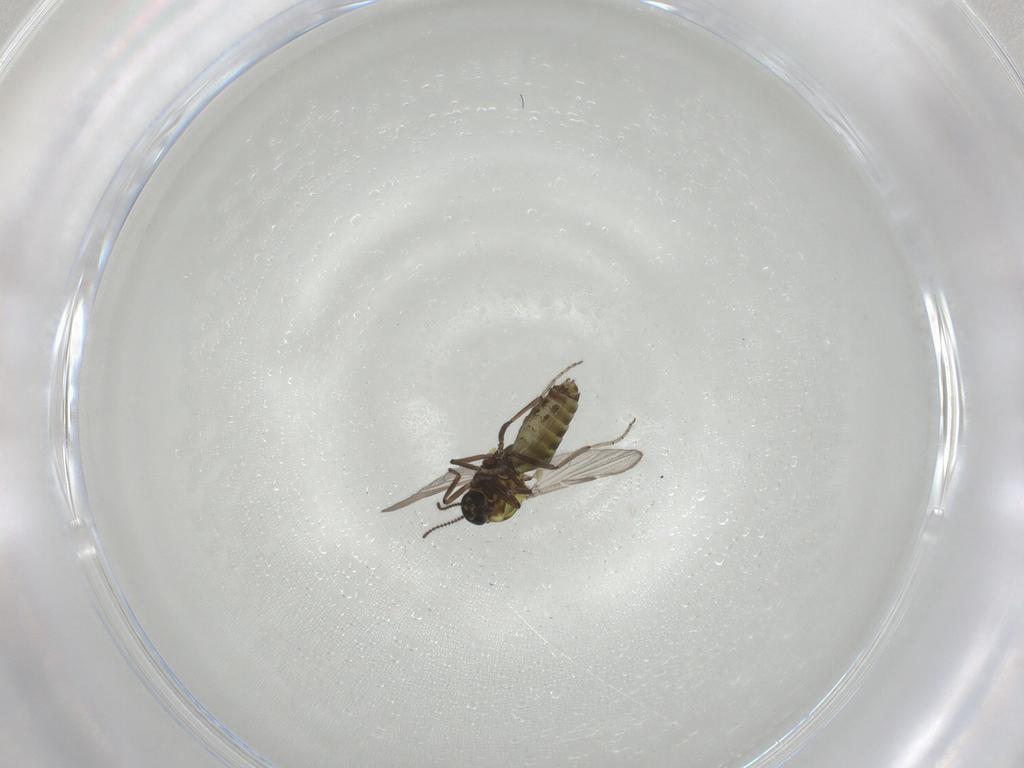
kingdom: Animalia
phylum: Arthropoda
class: Insecta
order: Diptera
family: Ceratopogonidae
